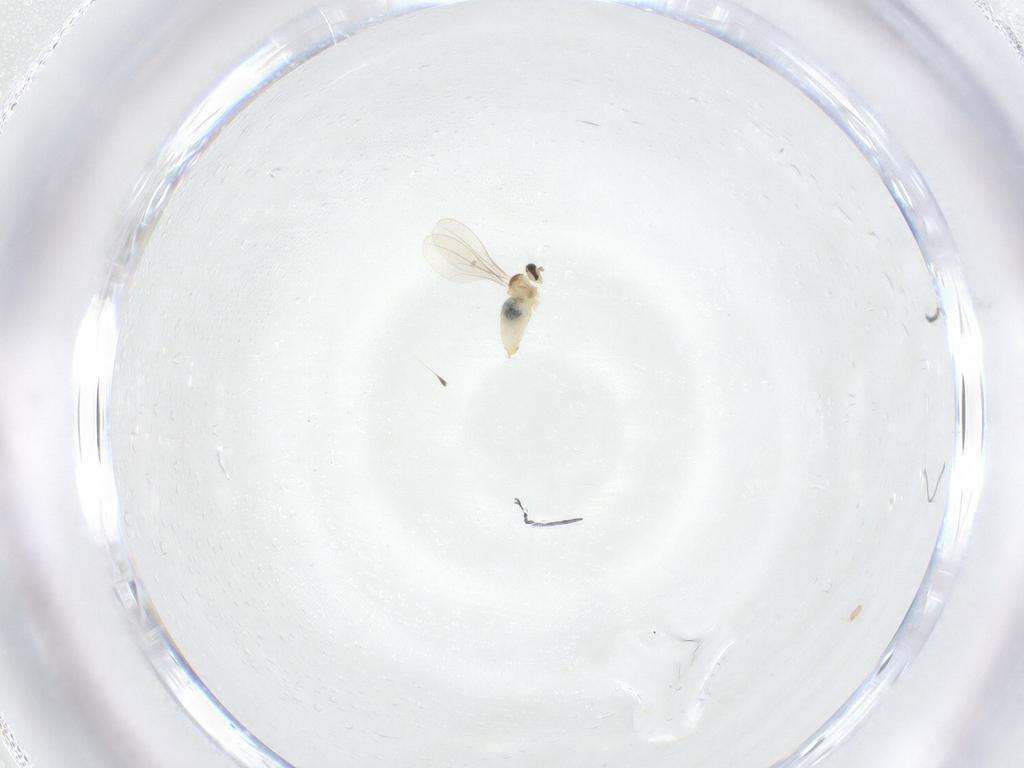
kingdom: Animalia
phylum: Arthropoda
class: Insecta
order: Diptera
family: Cecidomyiidae
